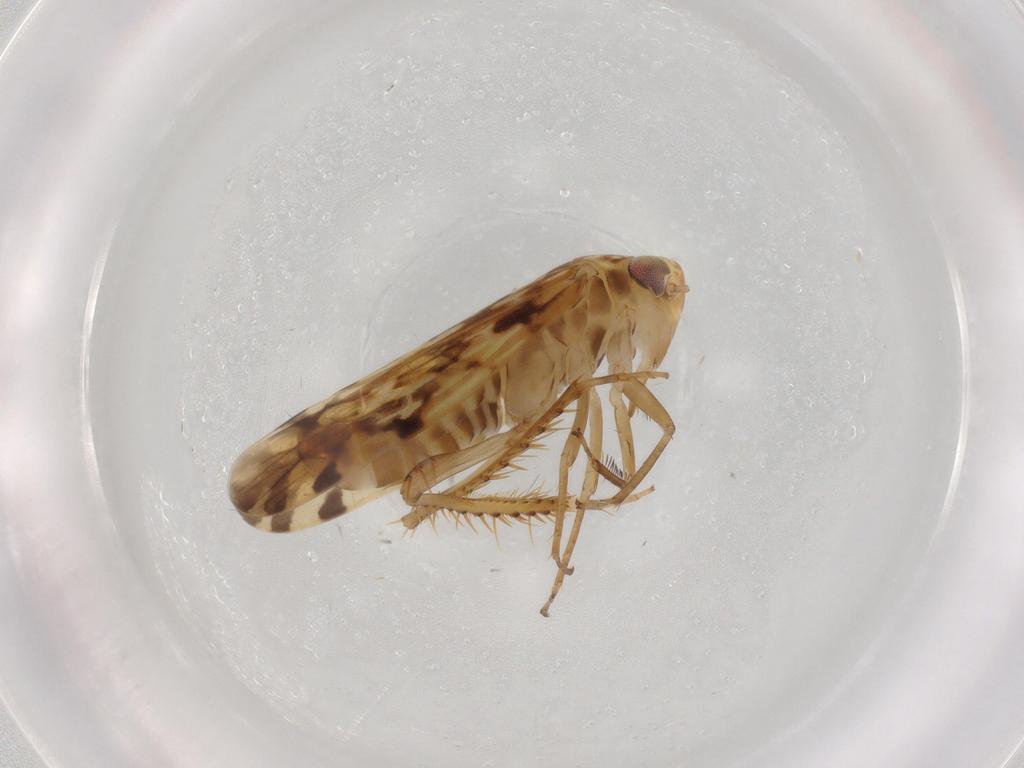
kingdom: Animalia
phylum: Arthropoda
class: Insecta
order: Hemiptera
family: Cicadellidae
